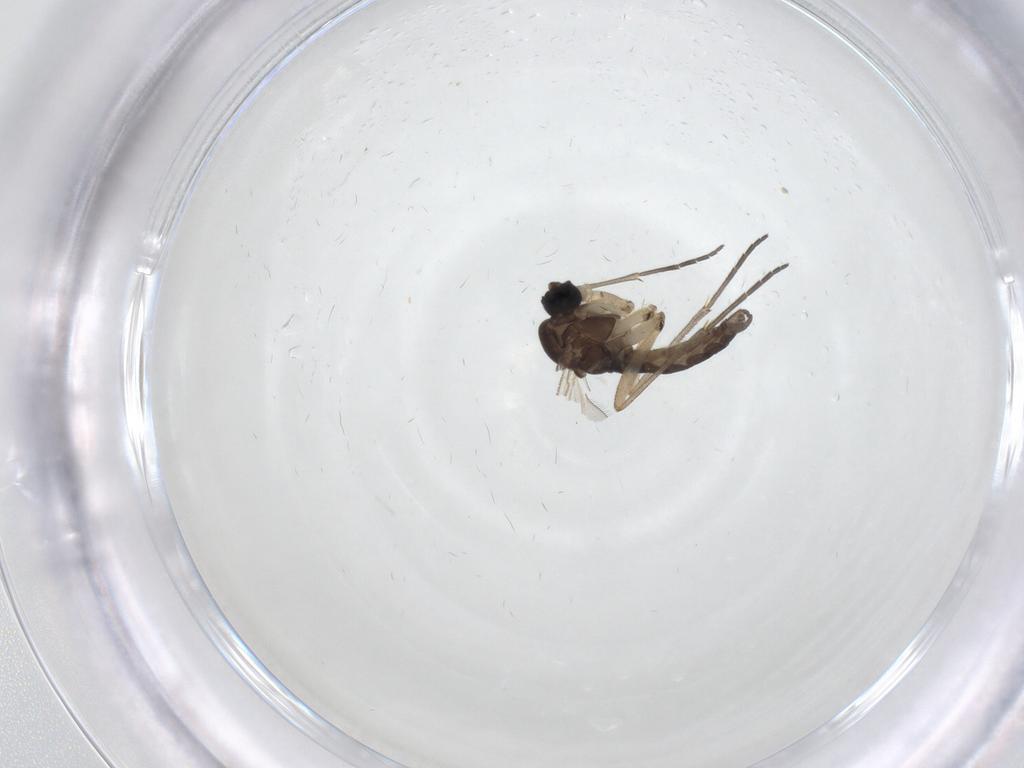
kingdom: Animalia
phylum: Arthropoda
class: Insecta
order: Diptera
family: Sciaridae
